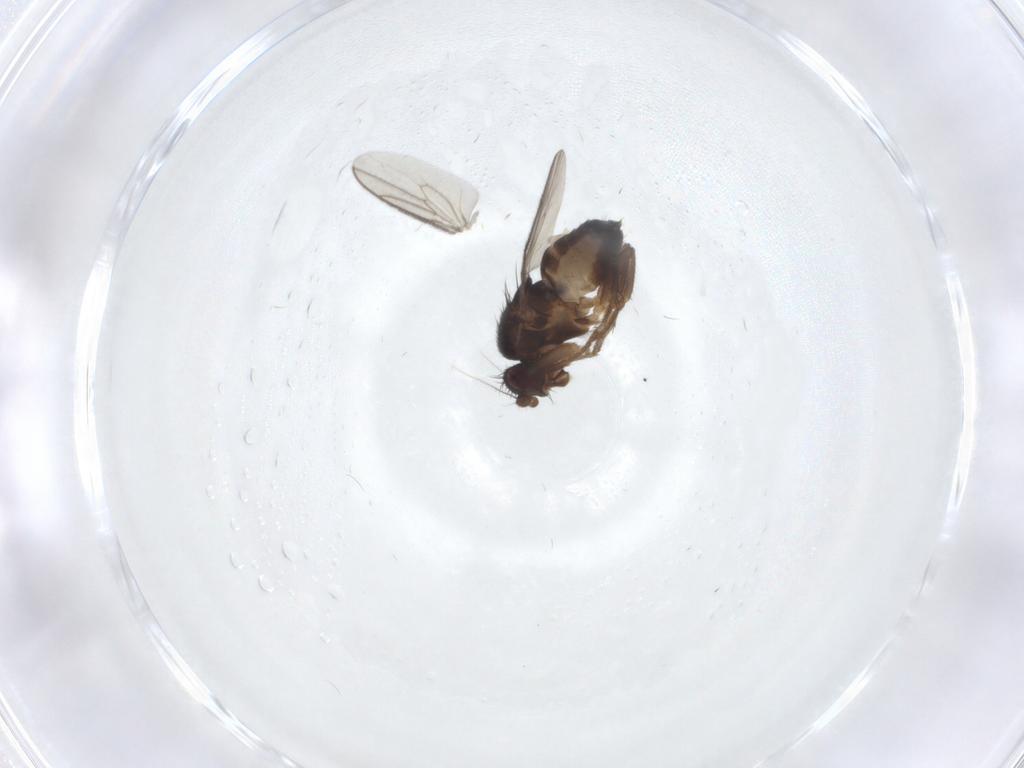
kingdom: Animalia
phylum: Arthropoda
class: Insecta
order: Diptera
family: Sphaeroceridae
